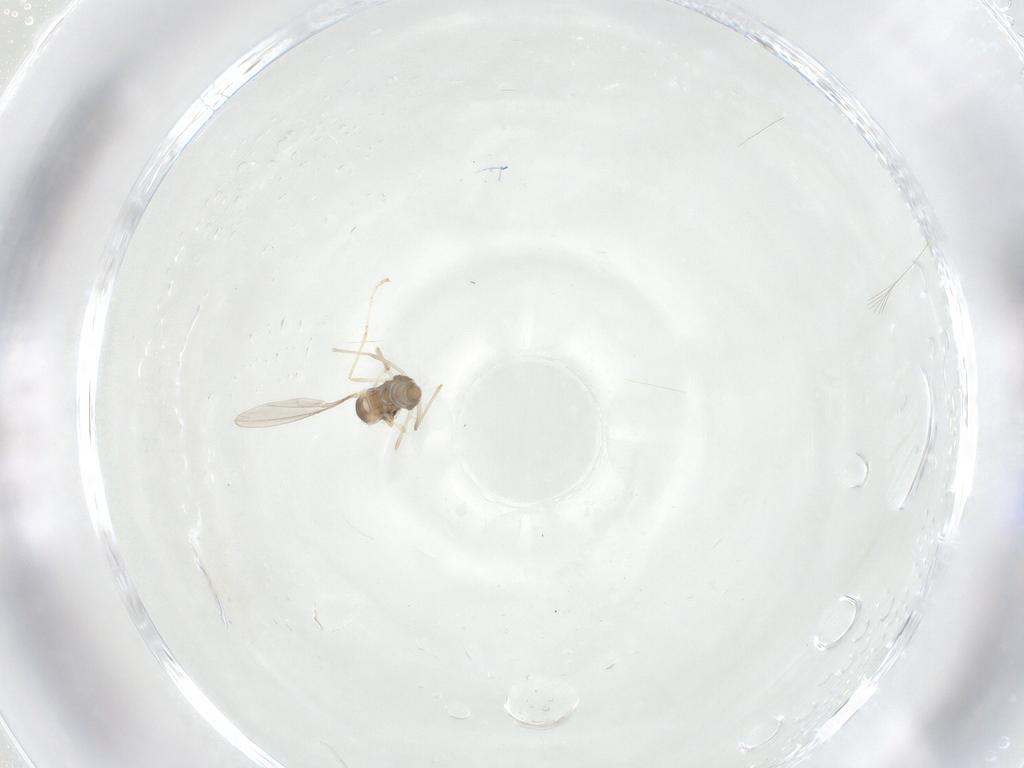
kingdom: Animalia
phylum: Arthropoda
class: Insecta
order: Diptera
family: Cecidomyiidae
